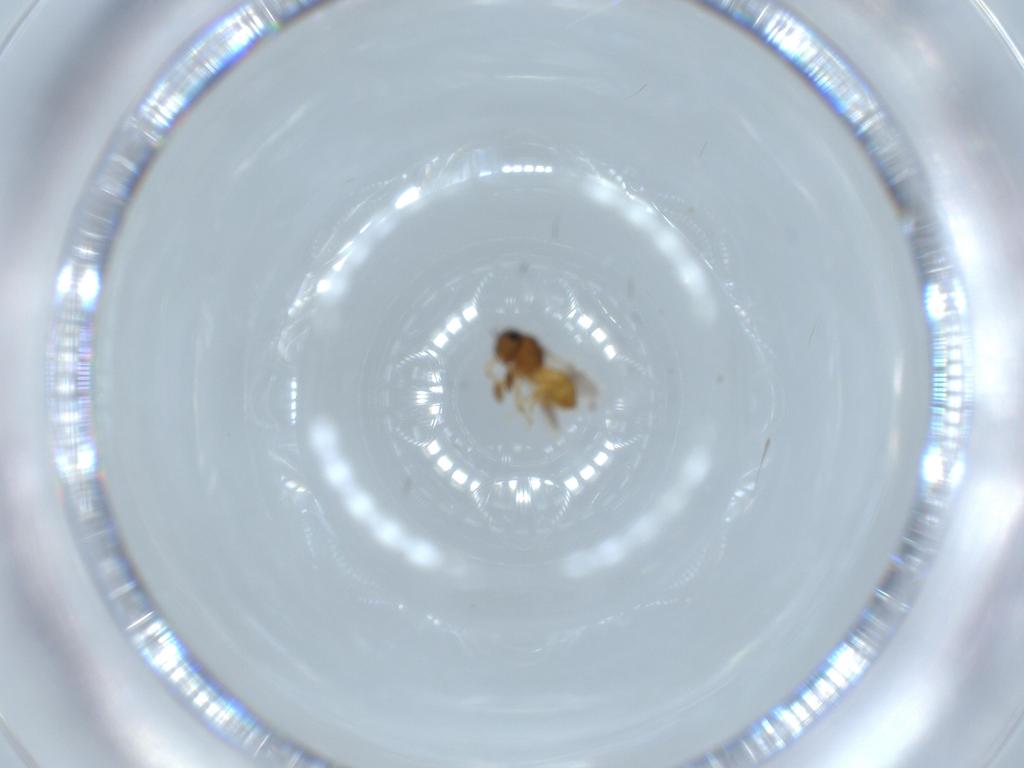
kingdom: Animalia
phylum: Arthropoda
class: Insecta
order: Hymenoptera
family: Scelionidae
